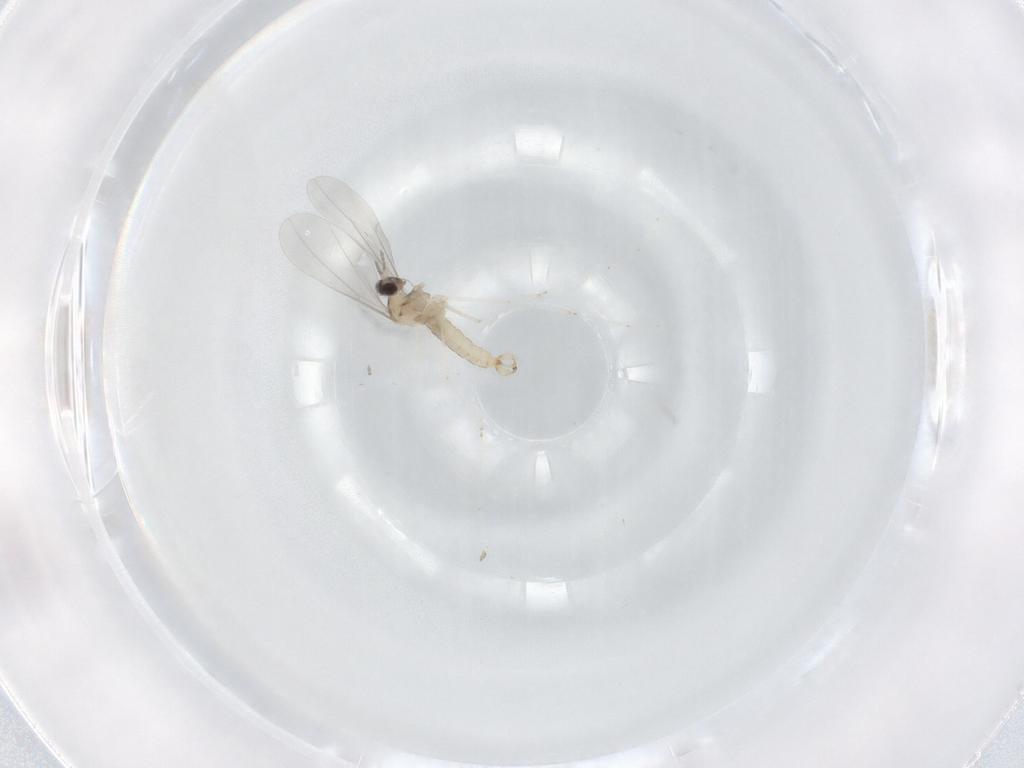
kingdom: Animalia
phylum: Arthropoda
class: Insecta
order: Diptera
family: Cecidomyiidae
